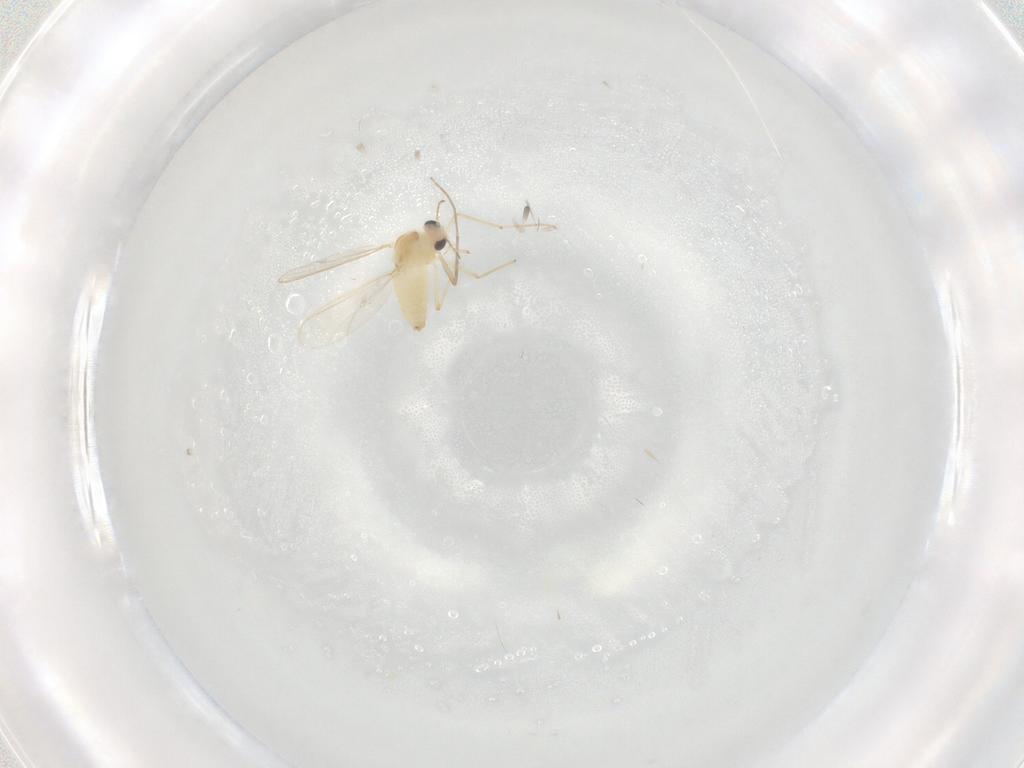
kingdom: Animalia
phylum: Arthropoda
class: Insecta
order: Diptera
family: Chironomidae
